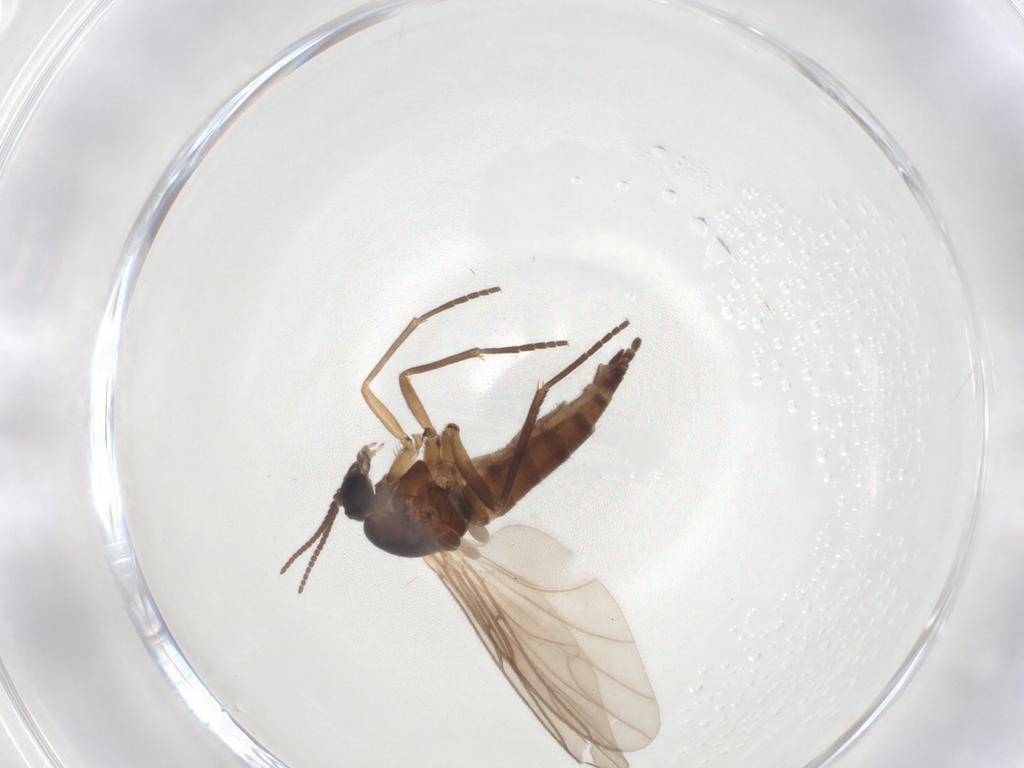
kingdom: Animalia
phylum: Arthropoda
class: Insecta
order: Diptera
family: Sciaridae
